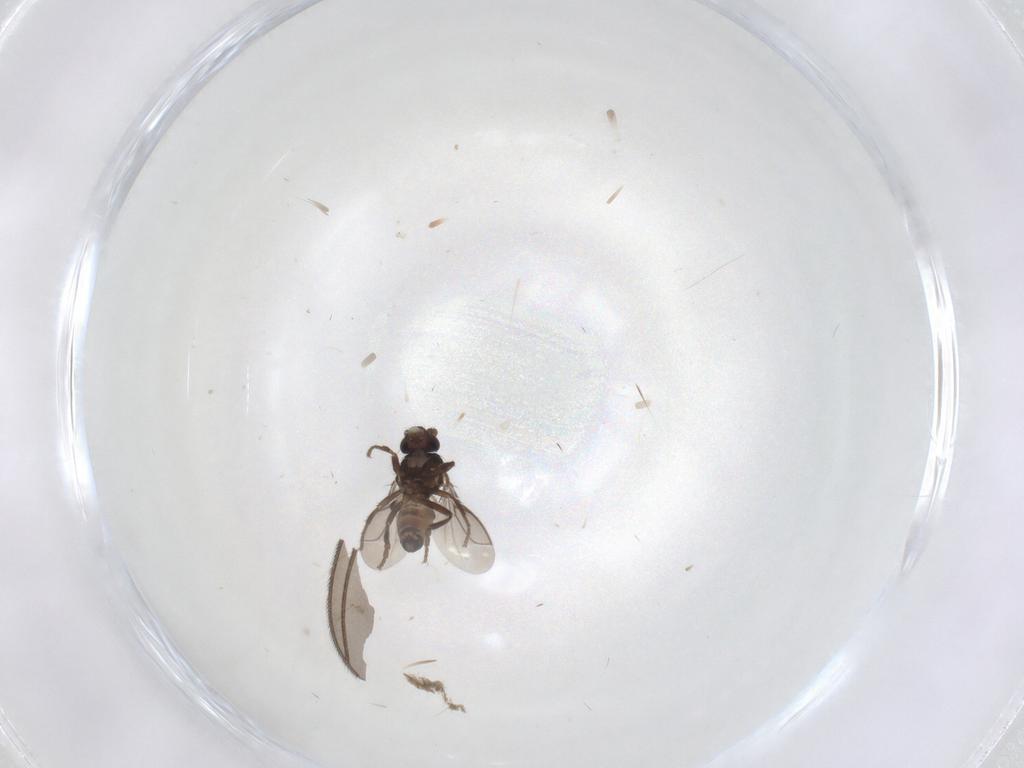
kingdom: Animalia
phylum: Arthropoda
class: Insecta
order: Diptera
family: Sphaeroceridae
